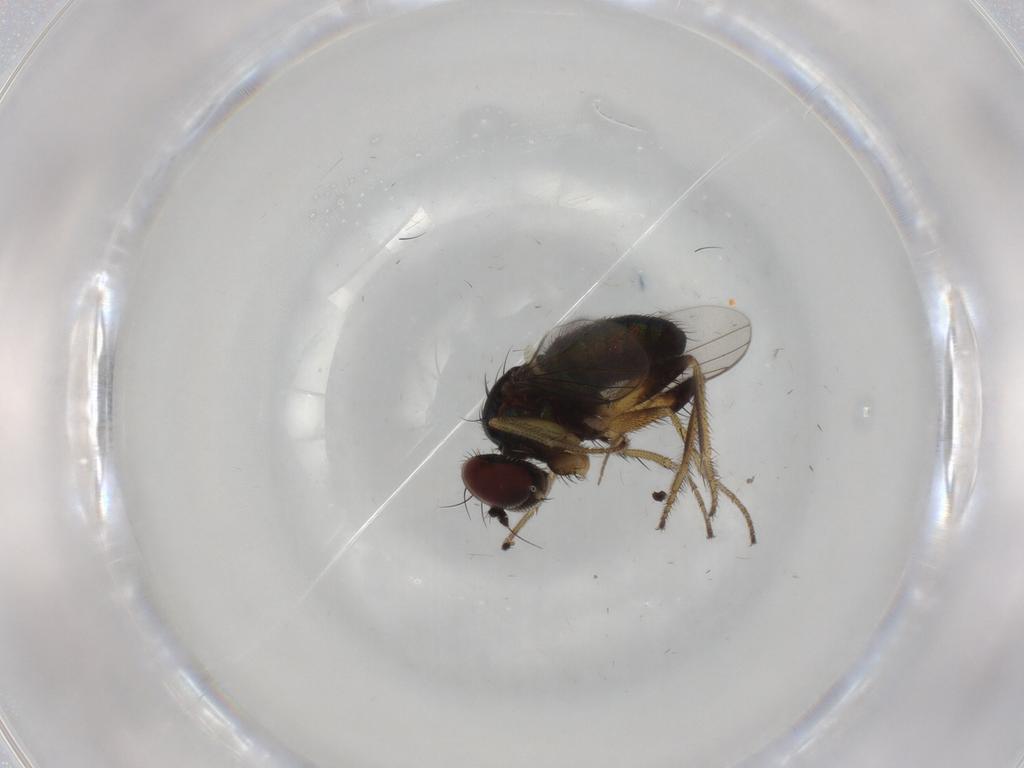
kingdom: Animalia
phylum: Arthropoda
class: Insecta
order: Diptera
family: Dolichopodidae
